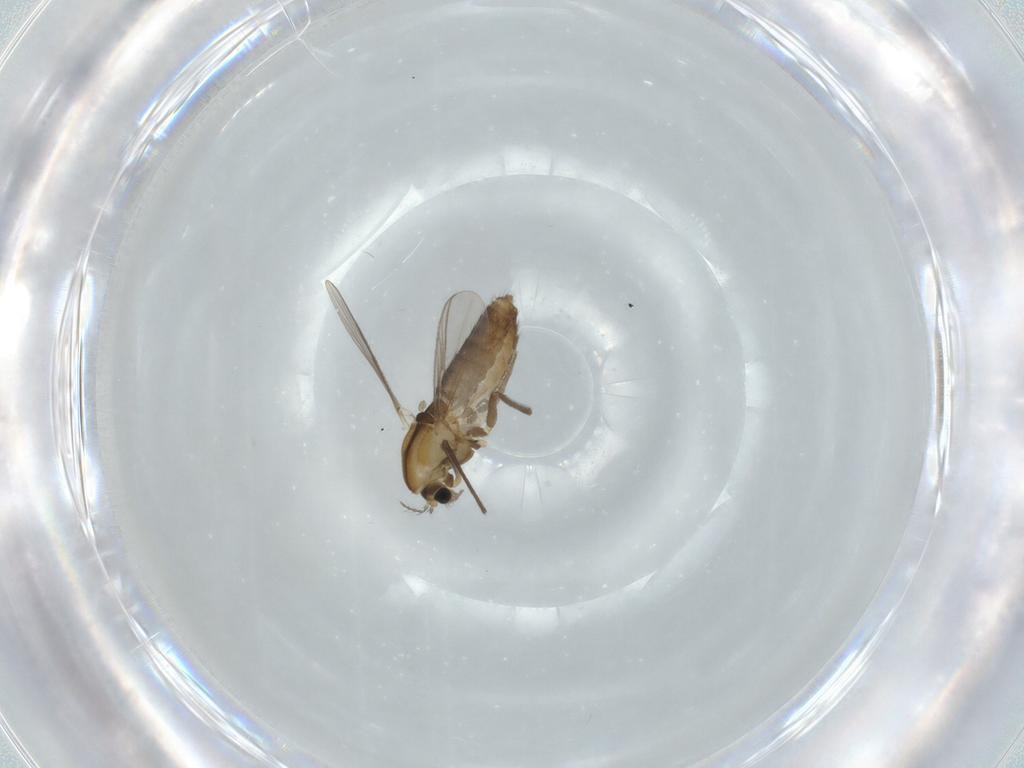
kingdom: Animalia
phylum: Arthropoda
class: Insecta
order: Diptera
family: Chironomidae
